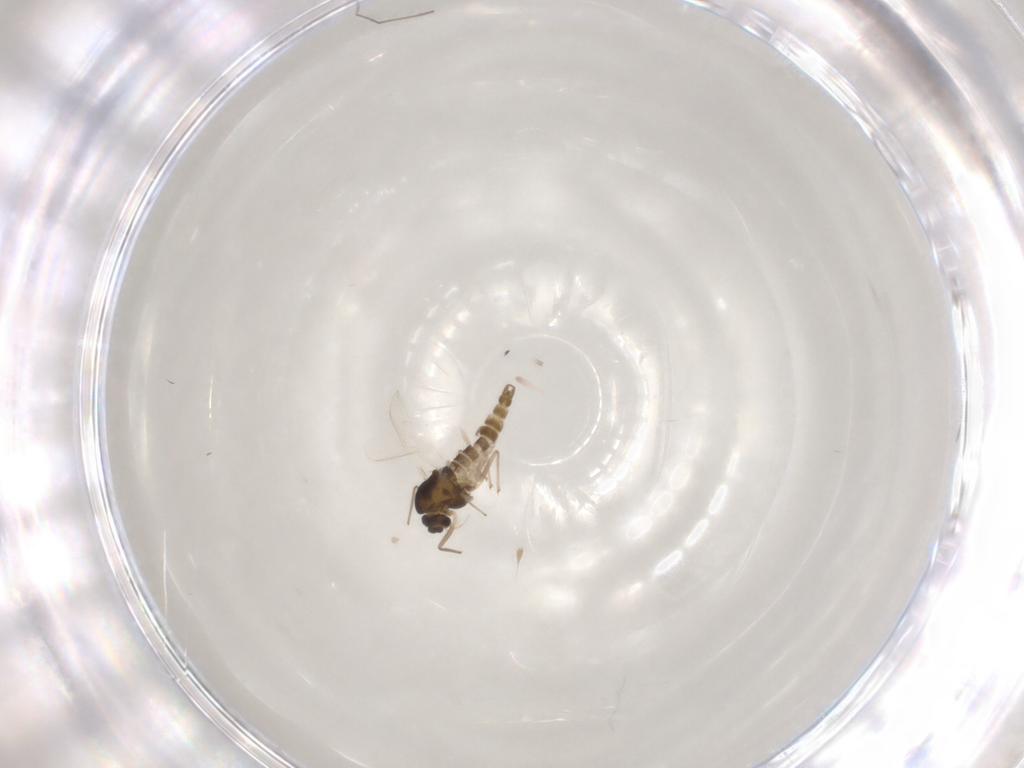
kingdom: Animalia
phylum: Arthropoda
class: Insecta
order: Diptera
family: Chironomidae
